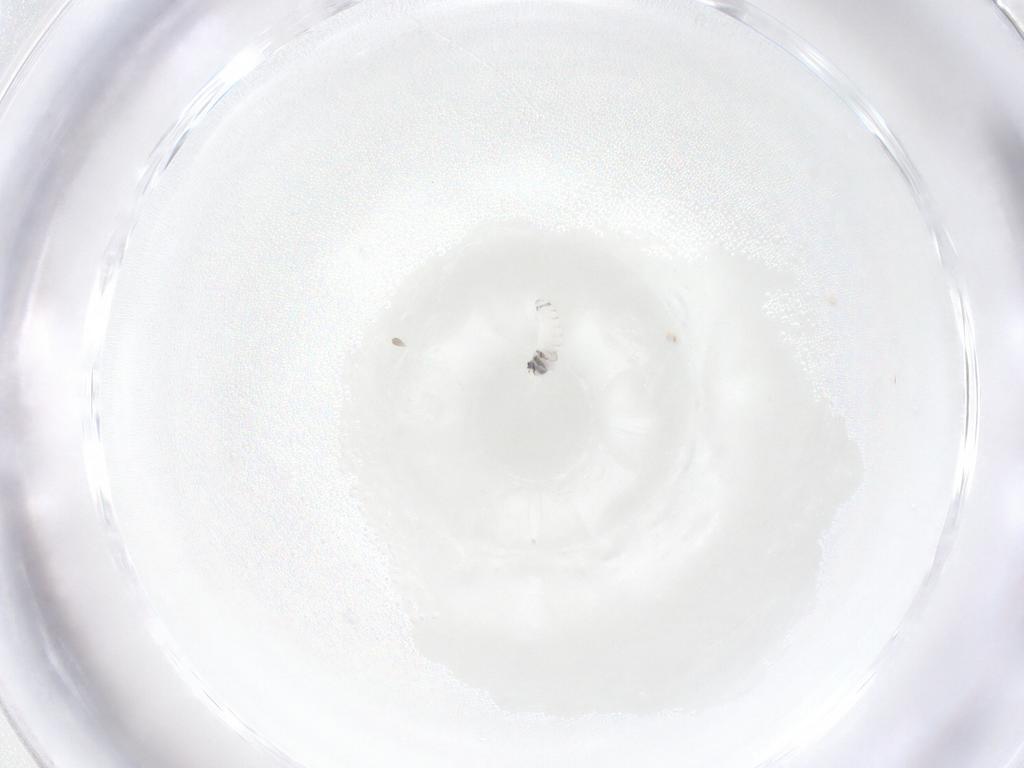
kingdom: Animalia
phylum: Arthropoda
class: Insecta
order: Diptera
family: Tachinidae
